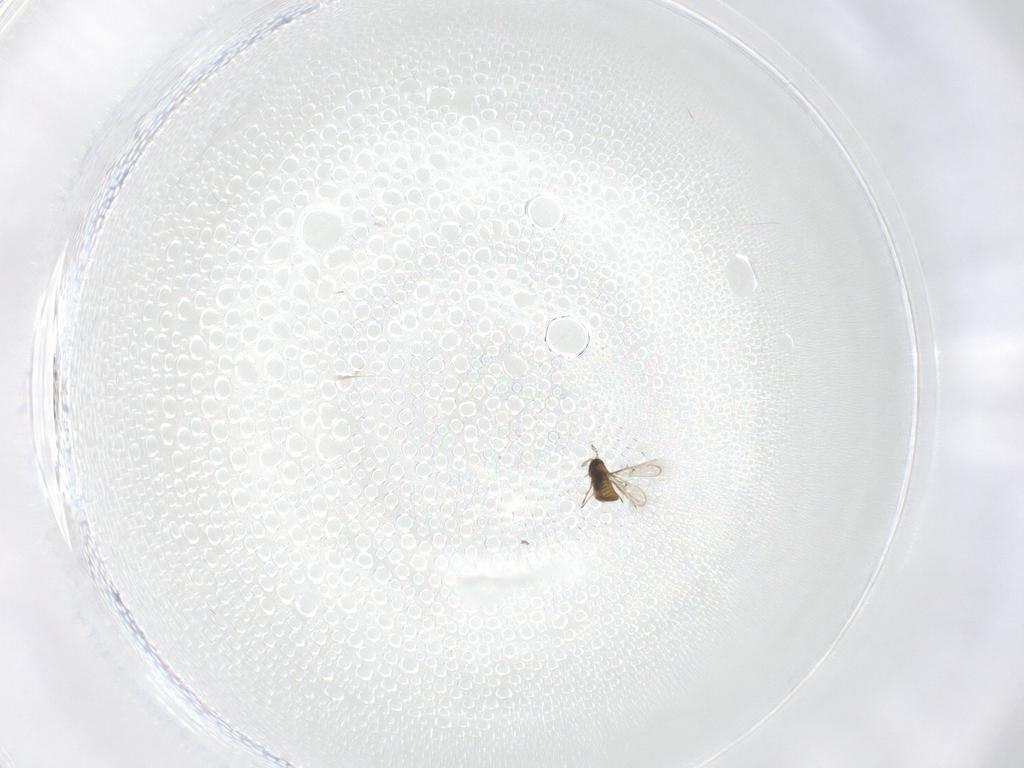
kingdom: Animalia
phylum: Arthropoda
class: Insecta
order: Hymenoptera
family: Trichogrammatidae
